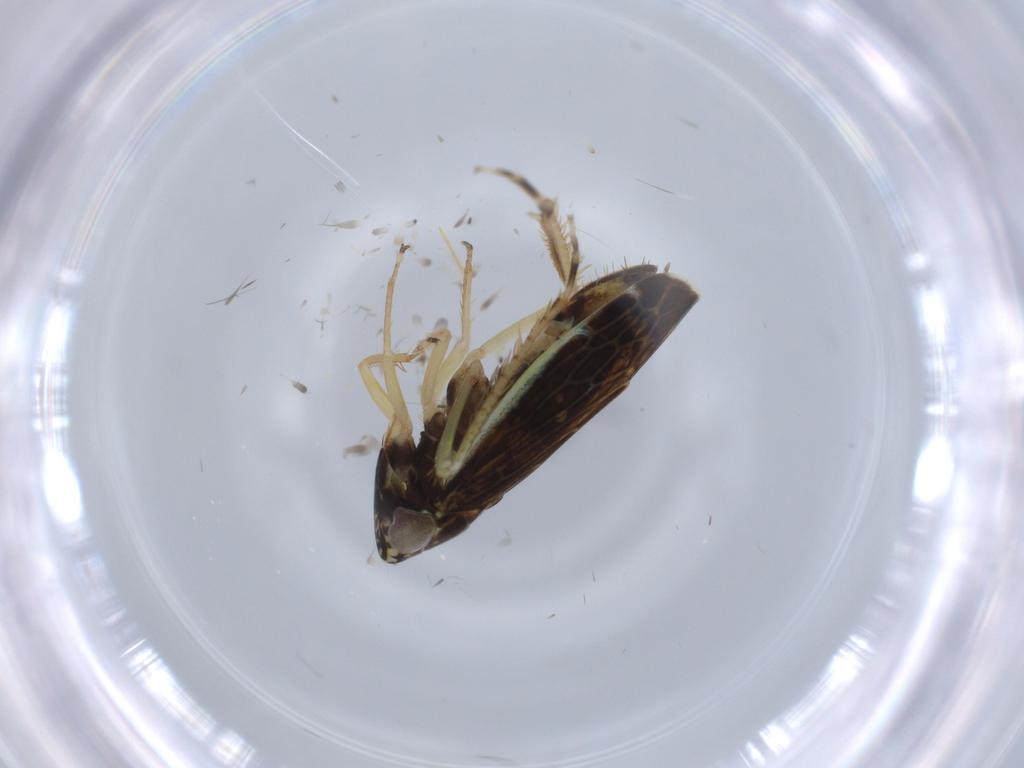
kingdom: Animalia
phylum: Arthropoda
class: Insecta
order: Hemiptera
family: Cicadellidae
